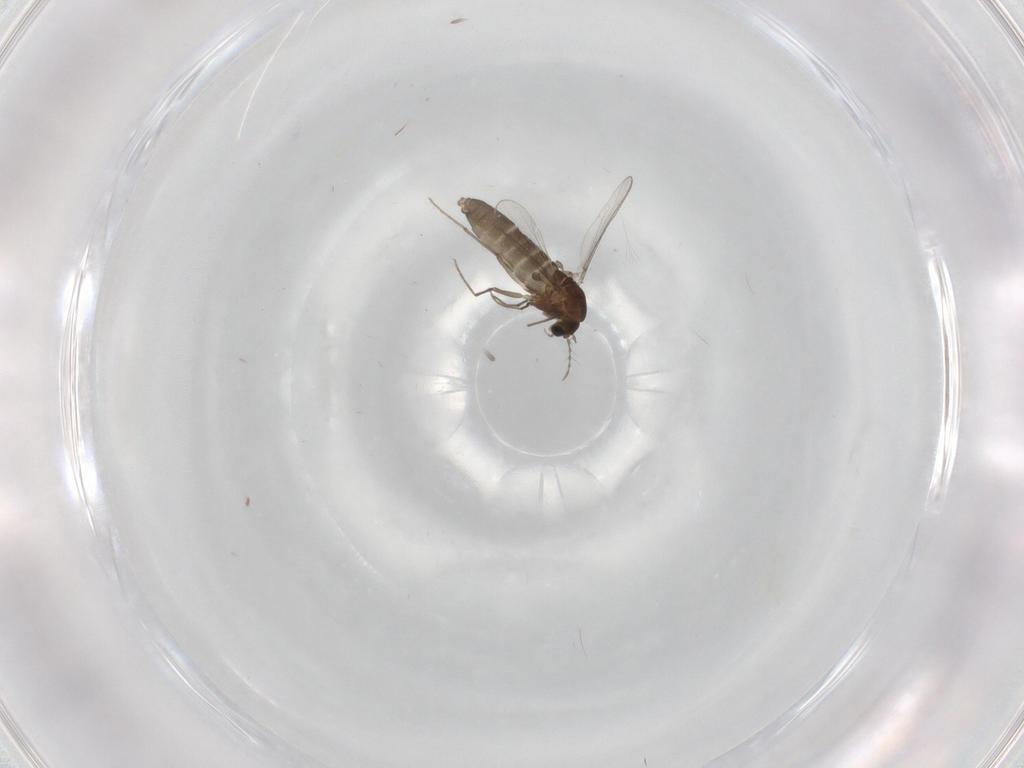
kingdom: Animalia
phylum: Arthropoda
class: Insecta
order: Diptera
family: Chironomidae
